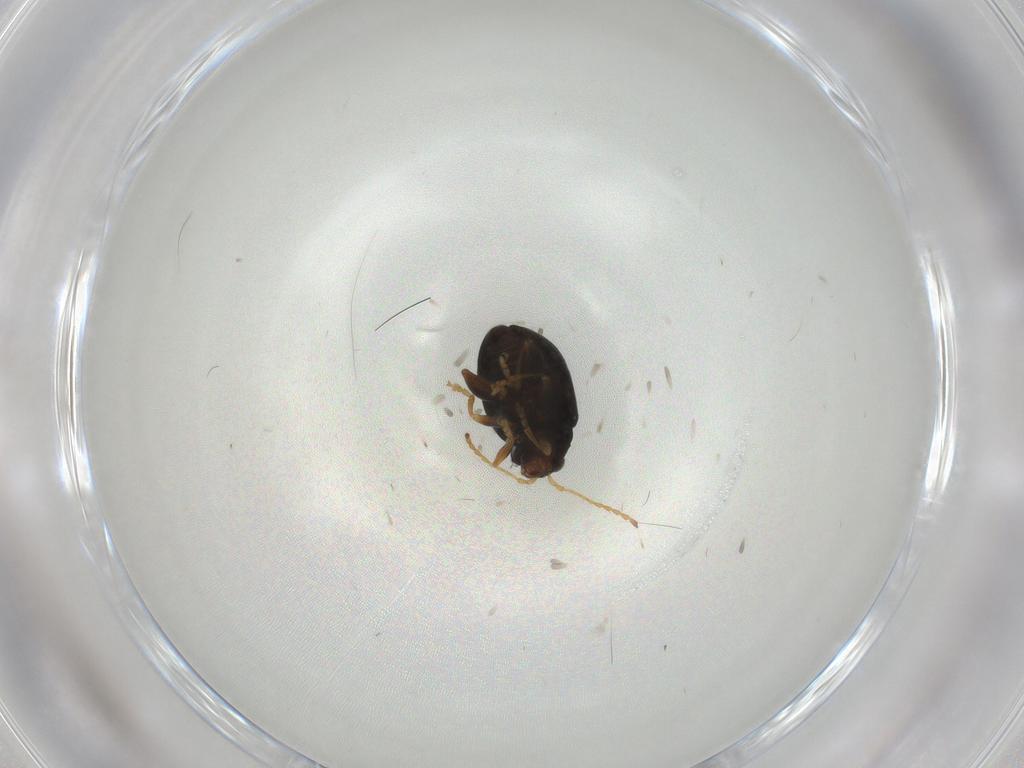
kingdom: Animalia
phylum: Arthropoda
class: Insecta
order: Coleoptera
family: Chrysomelidae
